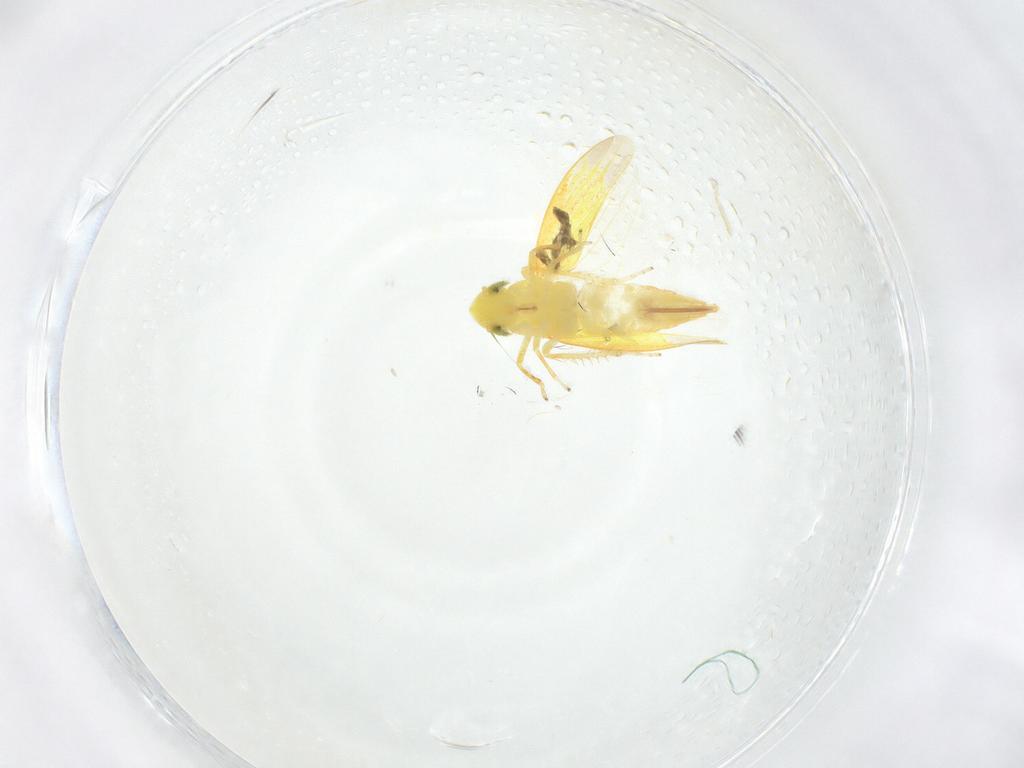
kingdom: Animalia
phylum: Arthropoda
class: Insecta
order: Hemiptera
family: Cicadellidae
